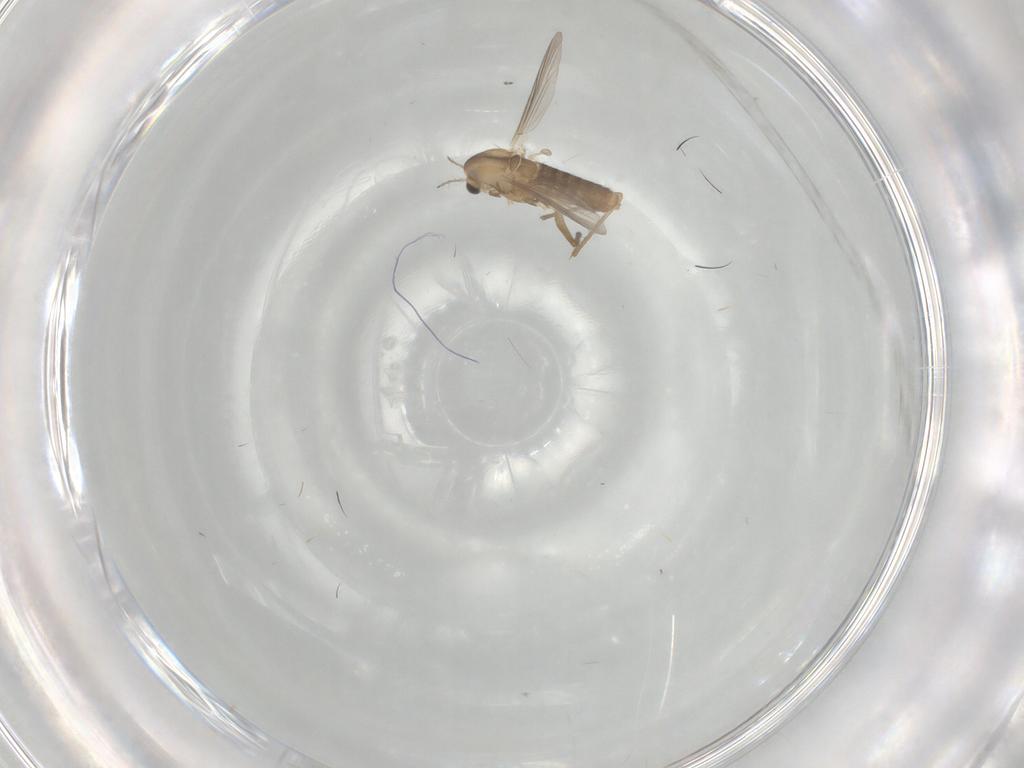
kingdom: Animalia
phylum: Arthropoda
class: Insecta
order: Diptera
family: Chironomidae
